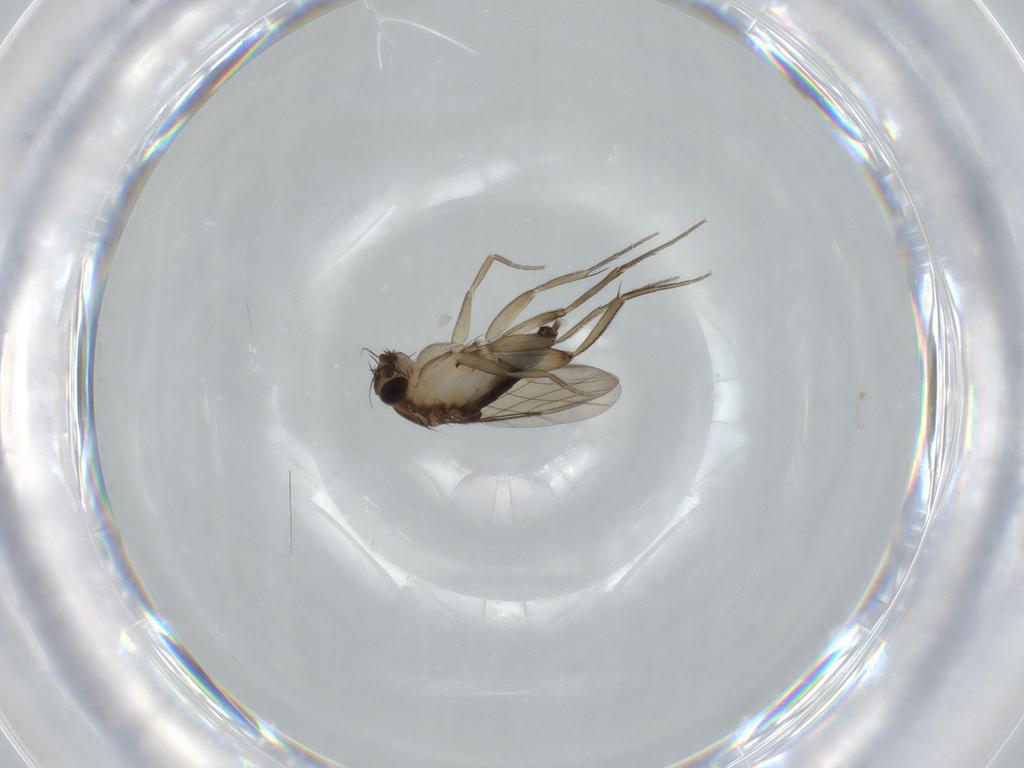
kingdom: Animalia
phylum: Arthropoda
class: Insecta
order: Diptera
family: Phoridae
